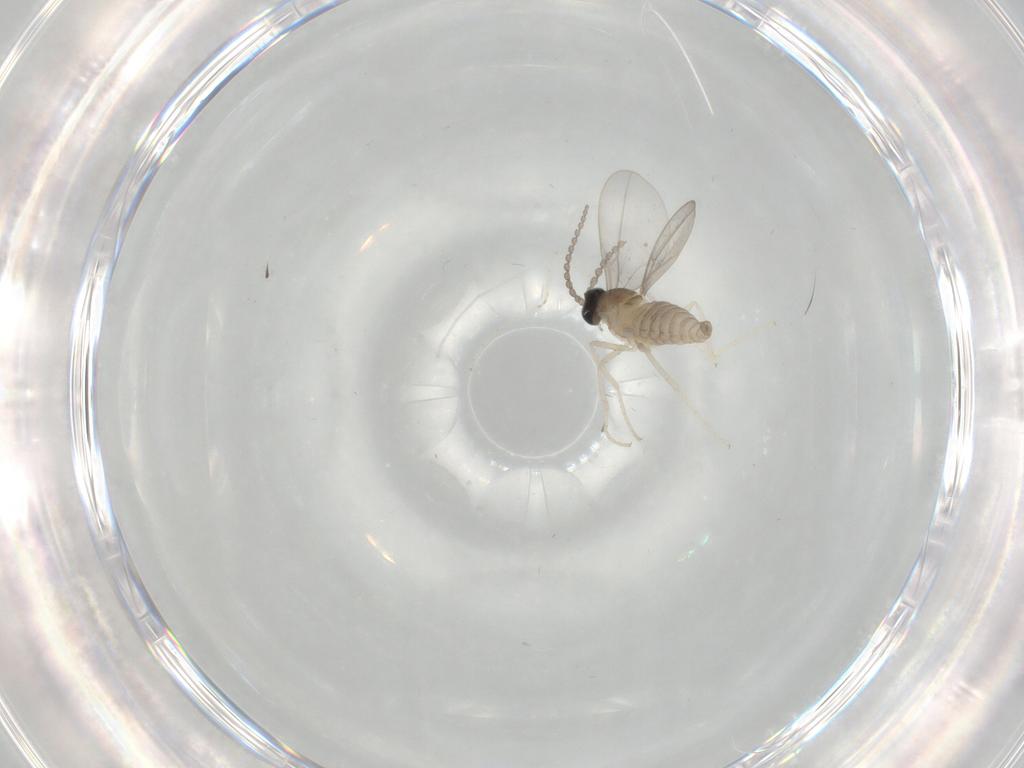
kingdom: Animalia
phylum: Arthropoda
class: Insecta
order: Diptera
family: Cecidomyiidae
